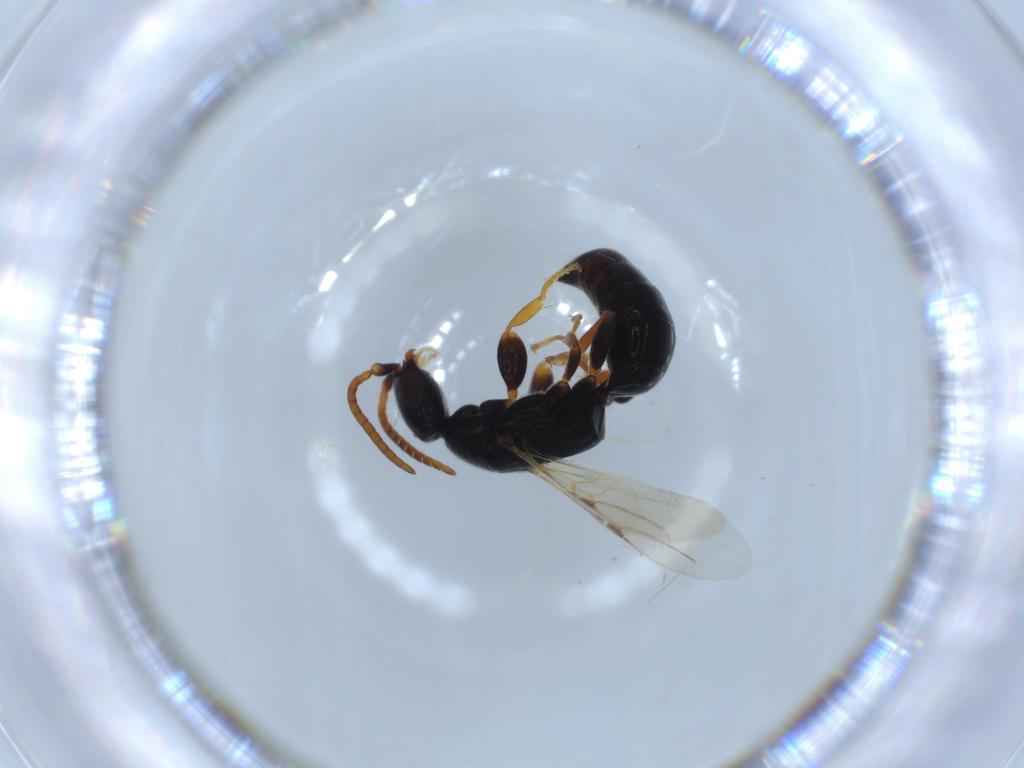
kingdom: Animalia
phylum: Arthropoda
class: Insecta
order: Hymenoptera
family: Bethylidae
